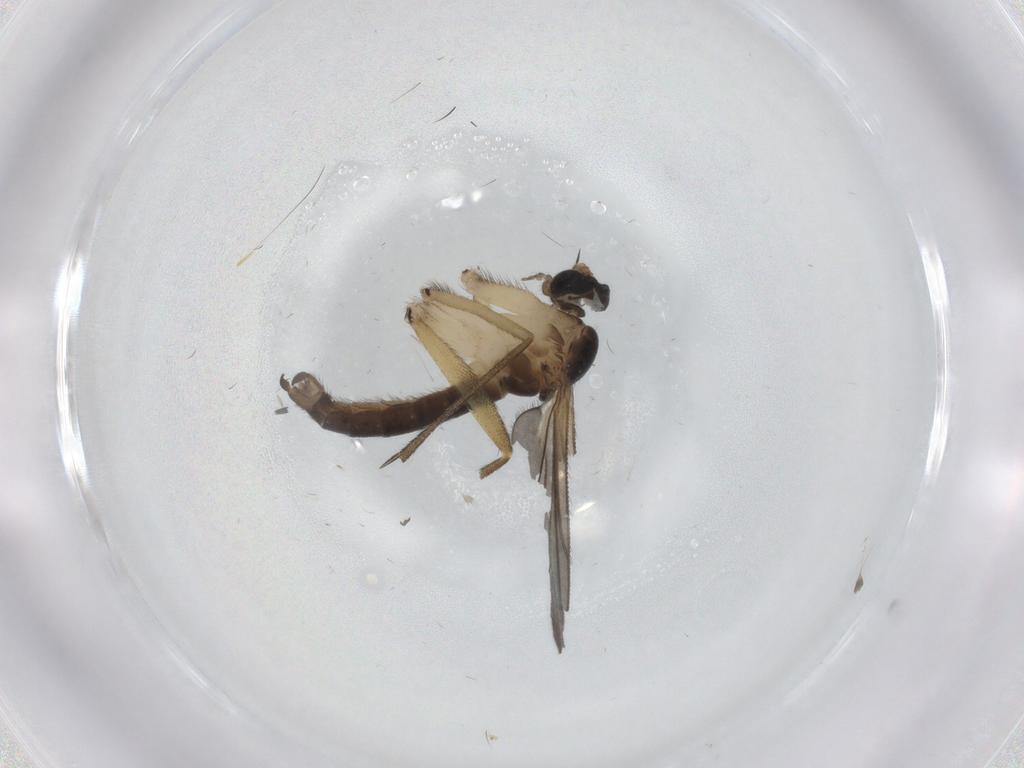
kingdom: Animalia
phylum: Arthropoda
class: Insecta
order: Diptera
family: Sciaridae
